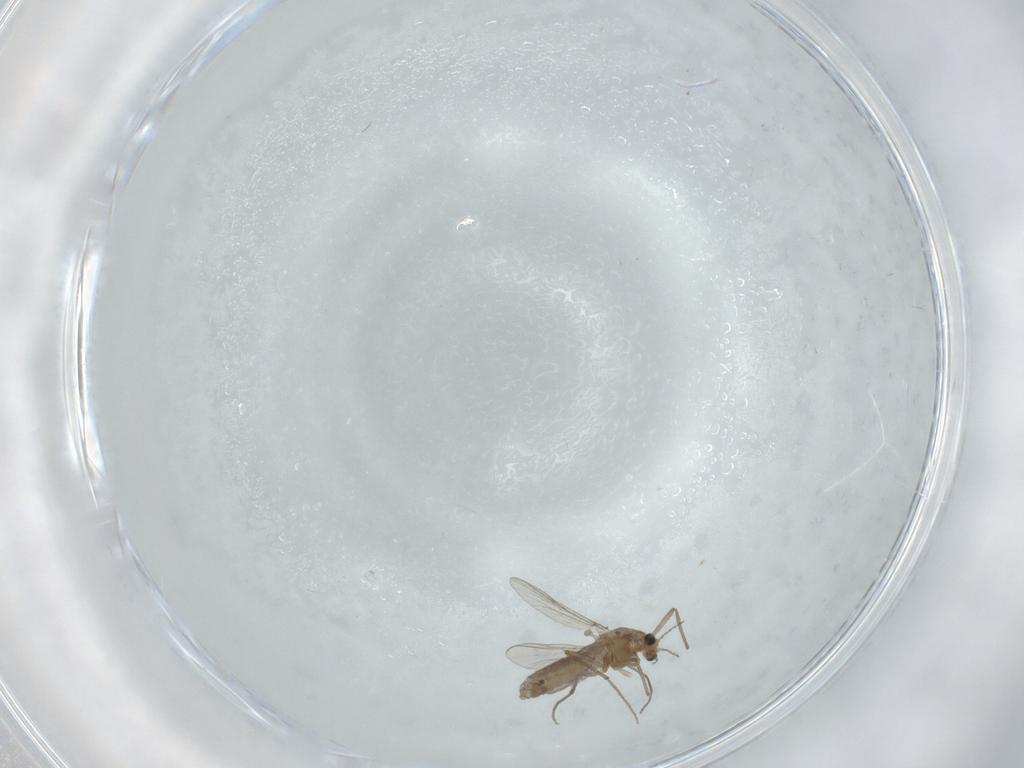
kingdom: Animalia
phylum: Arthropoda
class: Insecta
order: Diptera
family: Chironomidae
